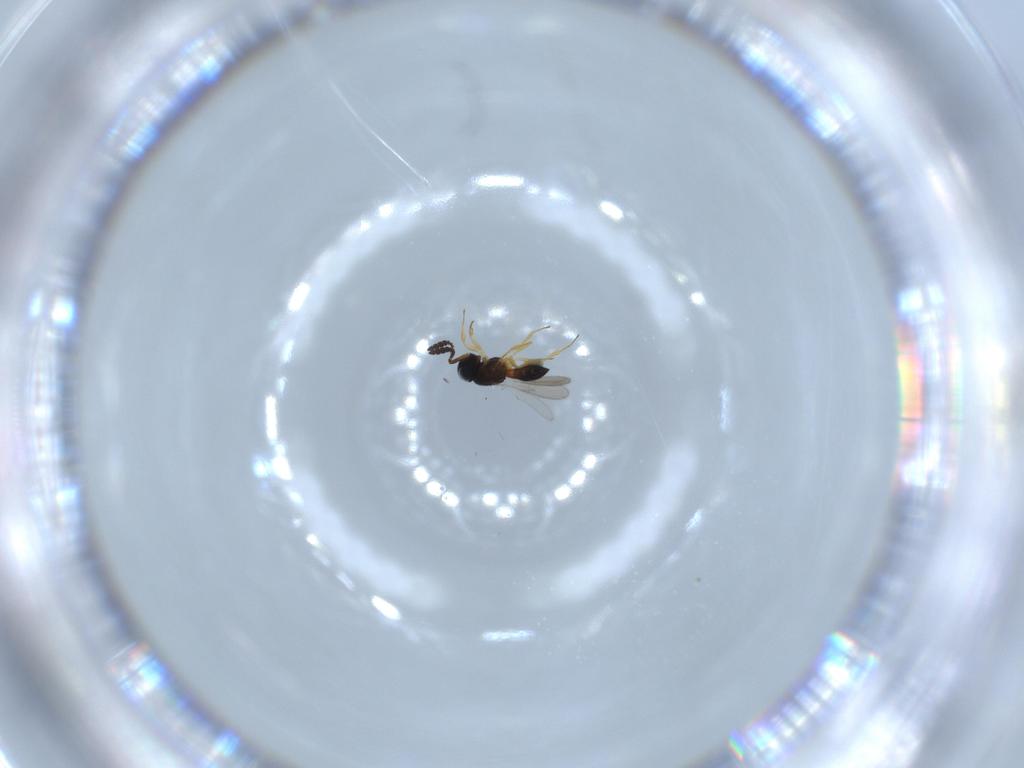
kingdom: Animalia
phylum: Arthropoda
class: Insecta
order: Hymenoptera
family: Scelionidae
